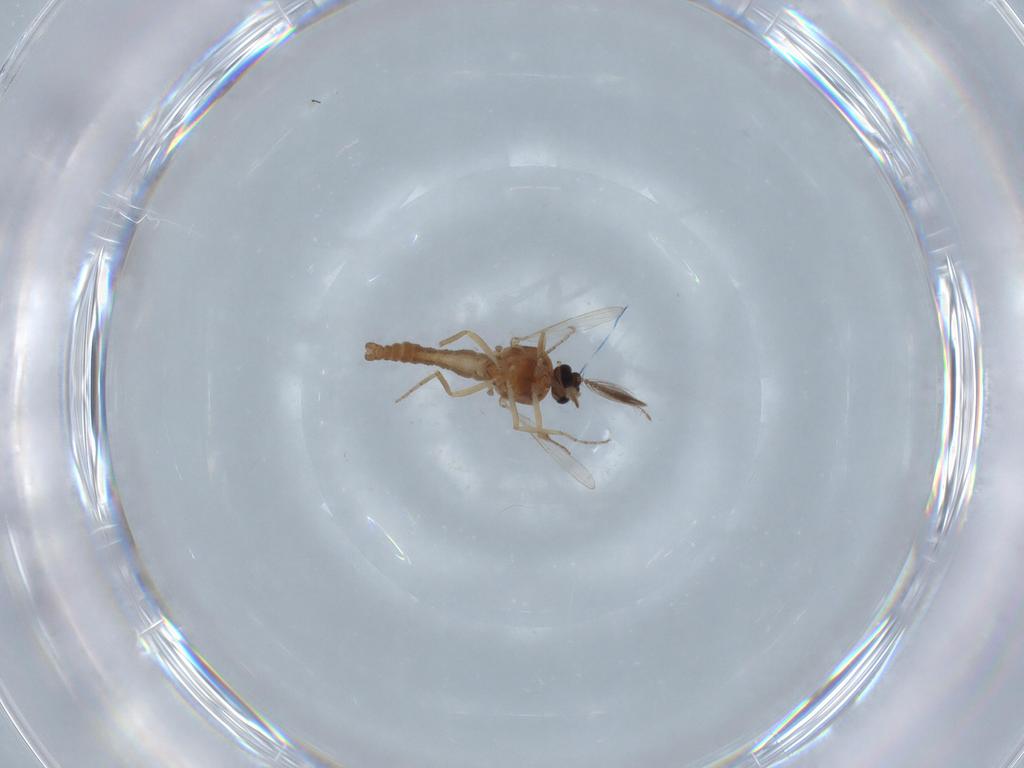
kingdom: Animalia
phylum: Arthropoda
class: Insecta
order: Diptera
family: Ceratopogonidae
